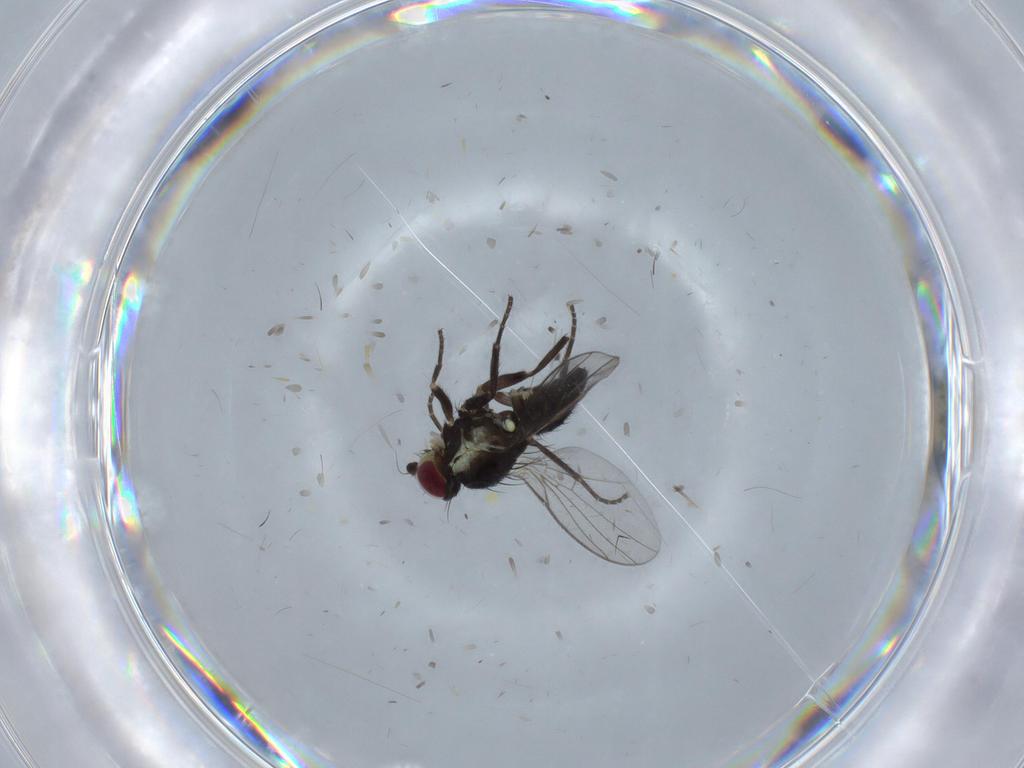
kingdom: Animalia
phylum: Arthropoda
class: Insecta
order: Diptera
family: Agromyzidae
